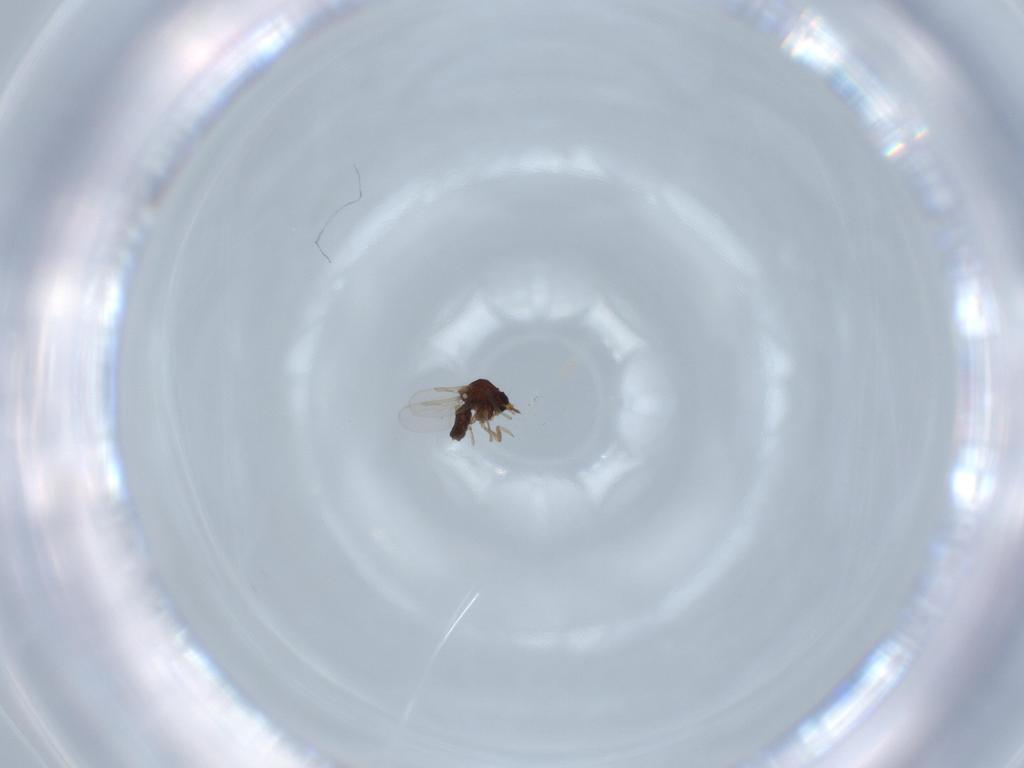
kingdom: Animalia
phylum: Arthropoda
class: Insecta
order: Diptera
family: Ceratopogonidae
